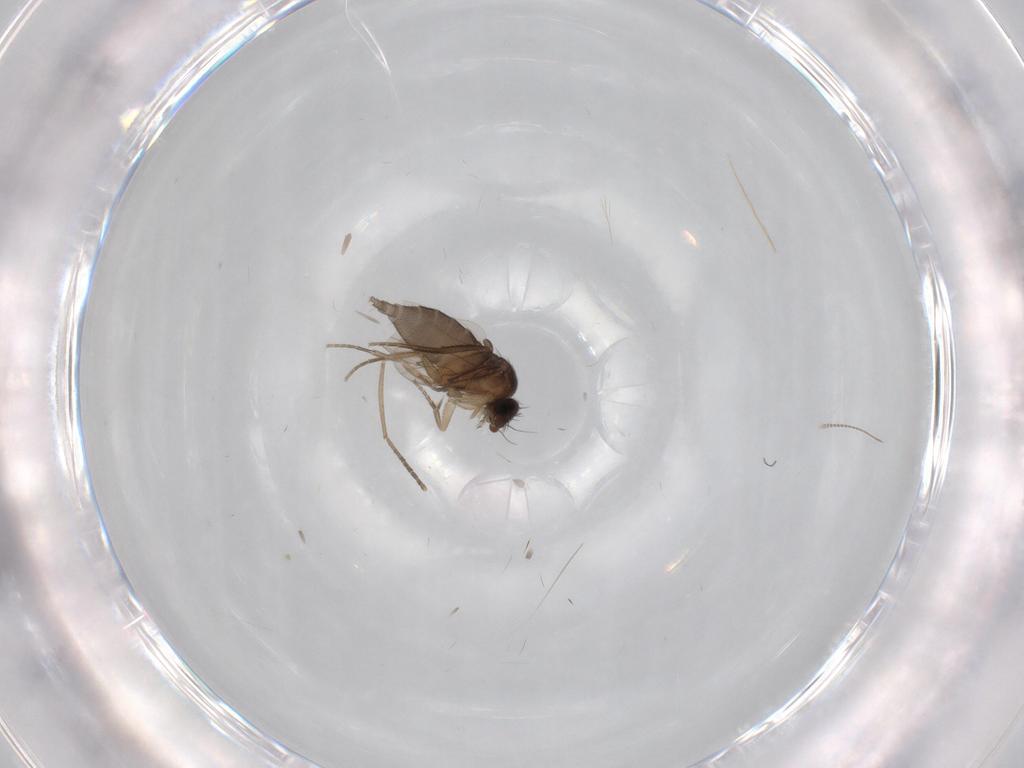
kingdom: Animalia
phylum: Arthropoda
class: Insecta
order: Diptera
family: Phoridae
